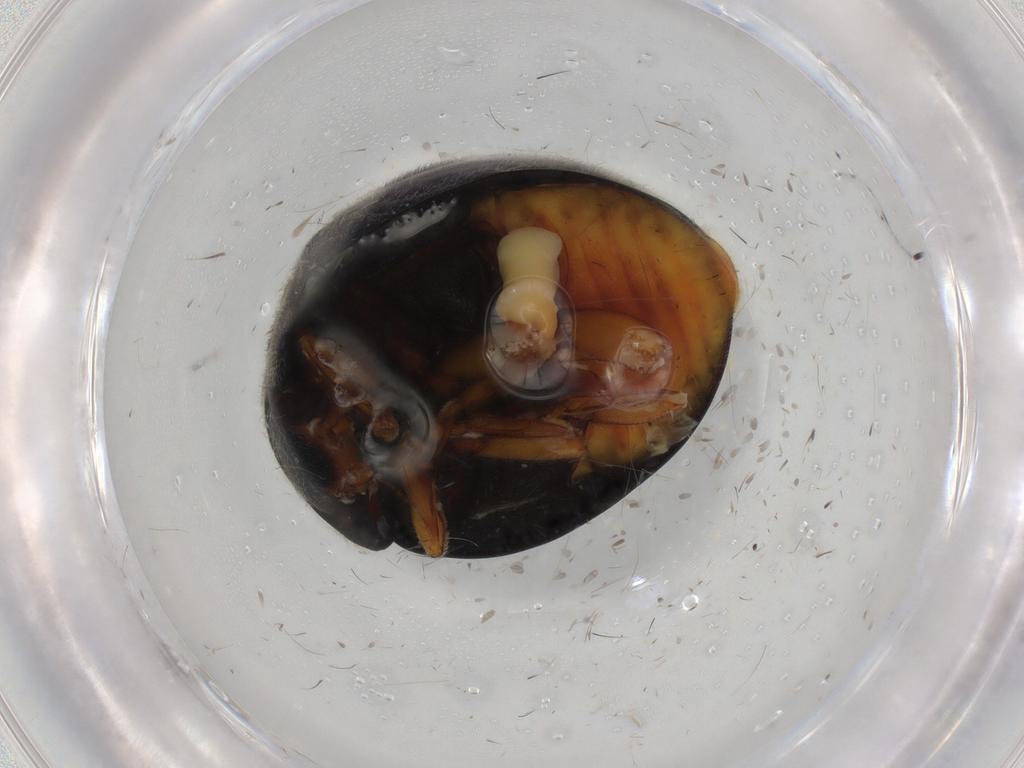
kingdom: Animalia
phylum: Arthropoda
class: Insecta
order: Coleoptera
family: Coccinellidae
